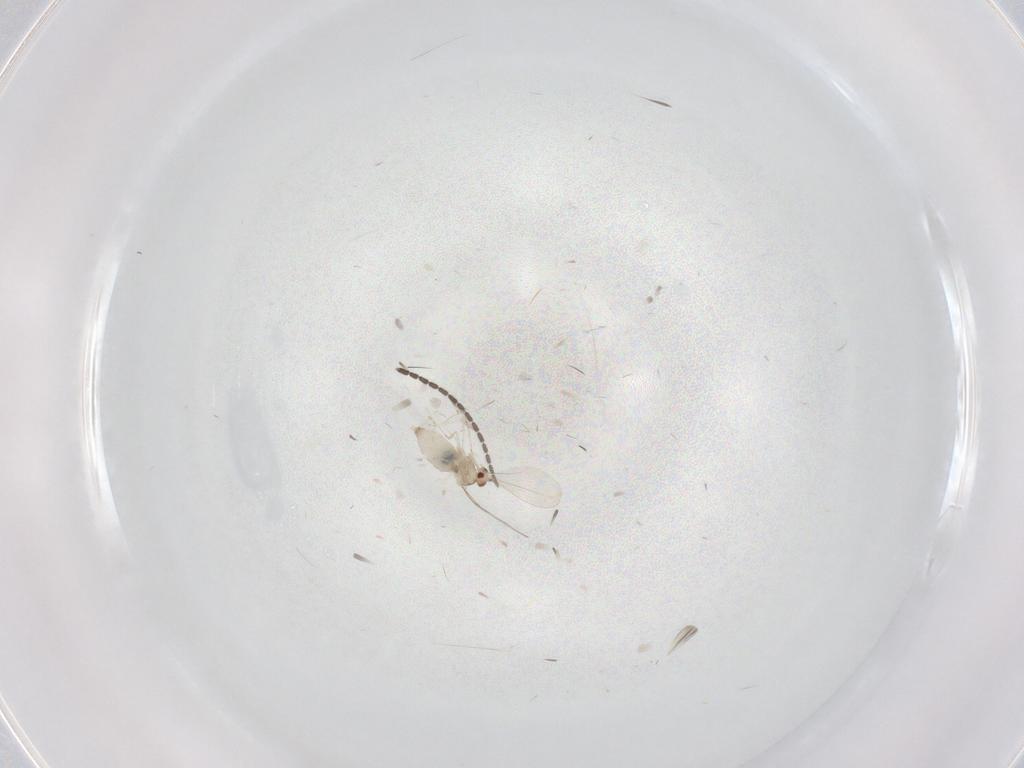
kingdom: Animalia
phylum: Arthropoda
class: Insecta
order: Diptera
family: Sciaridae
